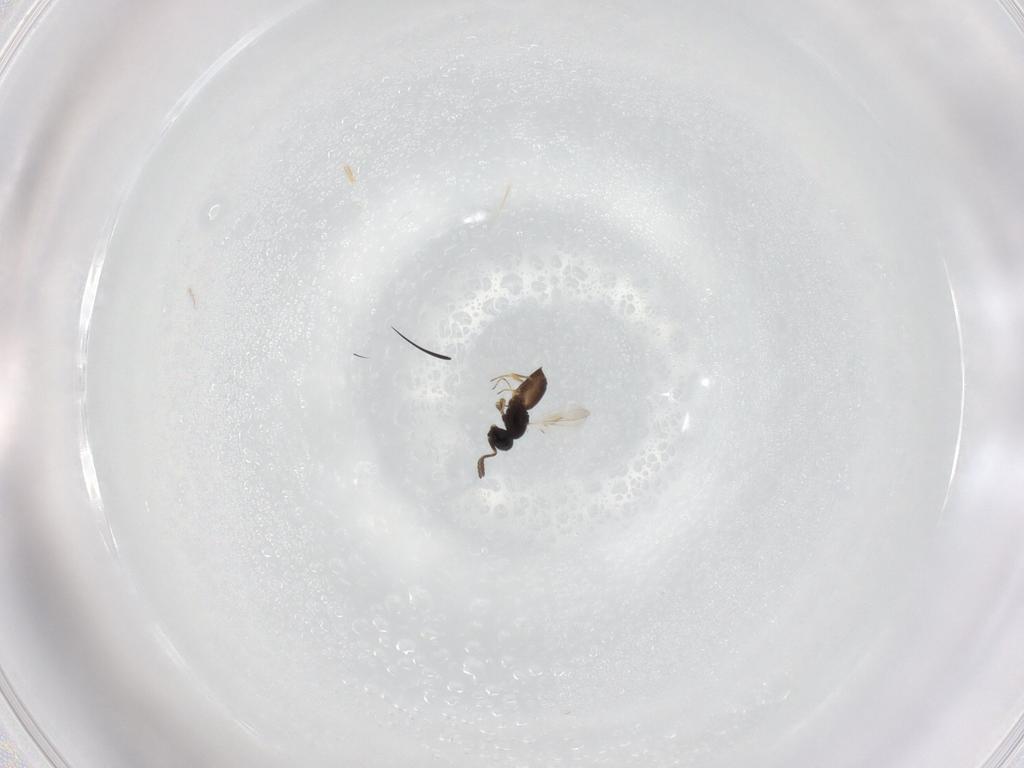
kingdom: Animalia
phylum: Arthropoda
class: Insecta
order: Hymenoptera
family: Scelionidae
